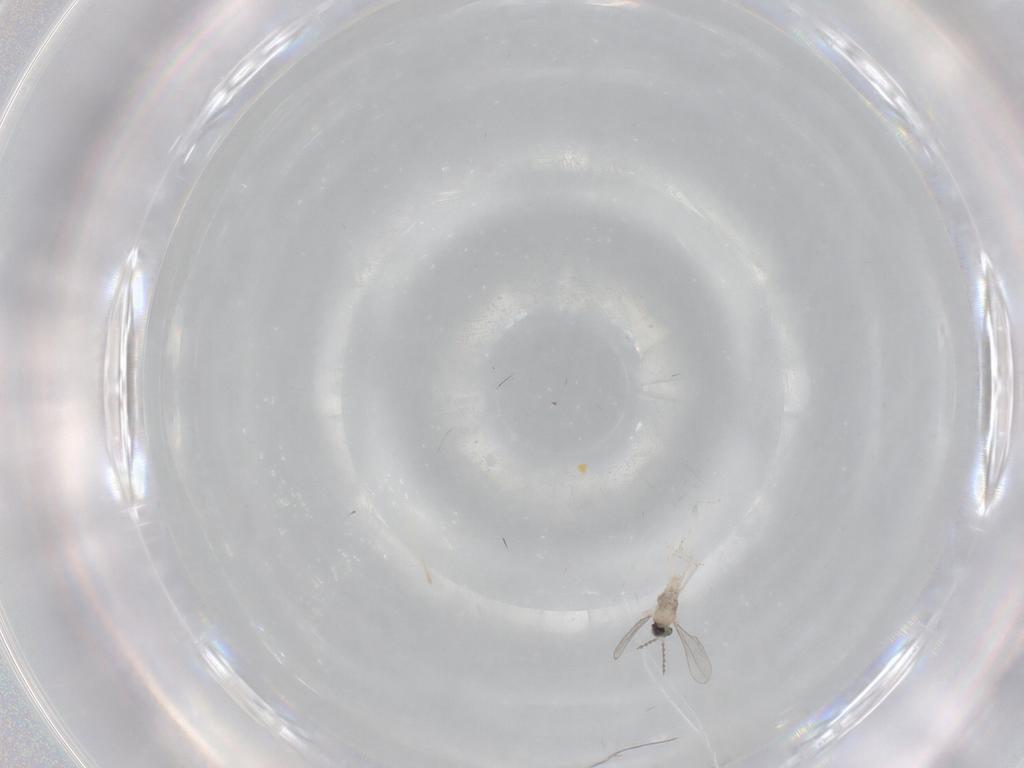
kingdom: Animalia
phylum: Arthropoda
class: Insecta
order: Diptera
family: Cecidomyiidae
